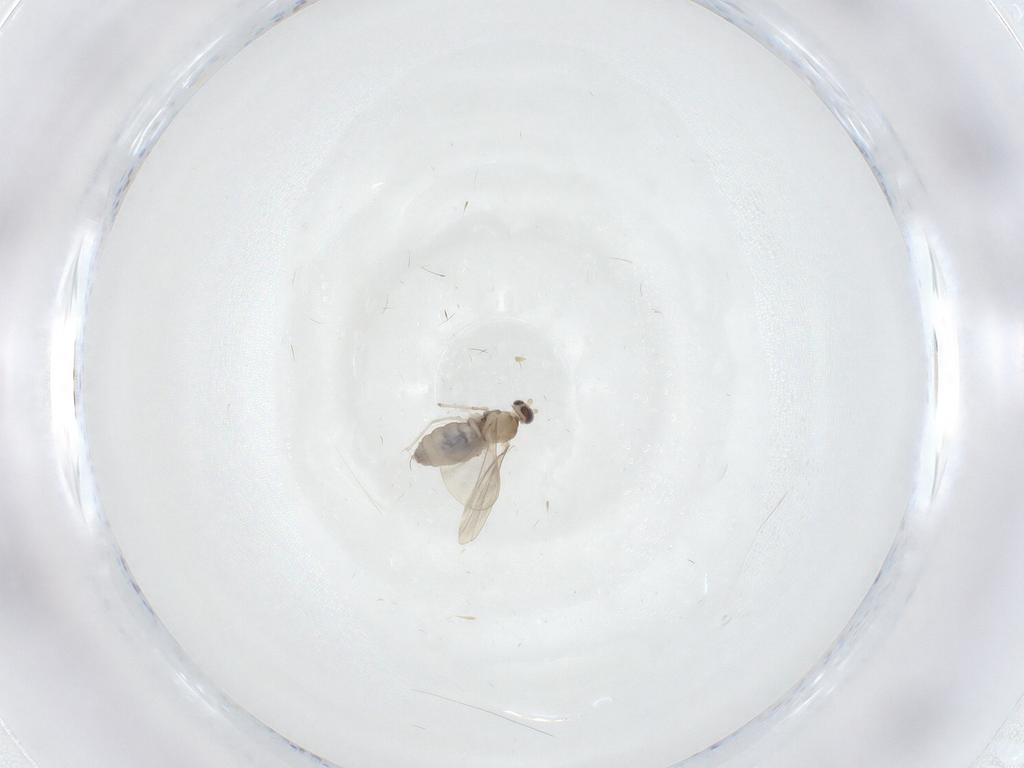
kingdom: Animalia
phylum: Arthropoda
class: Insecta
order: Diptera
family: Cecidomyiidae
